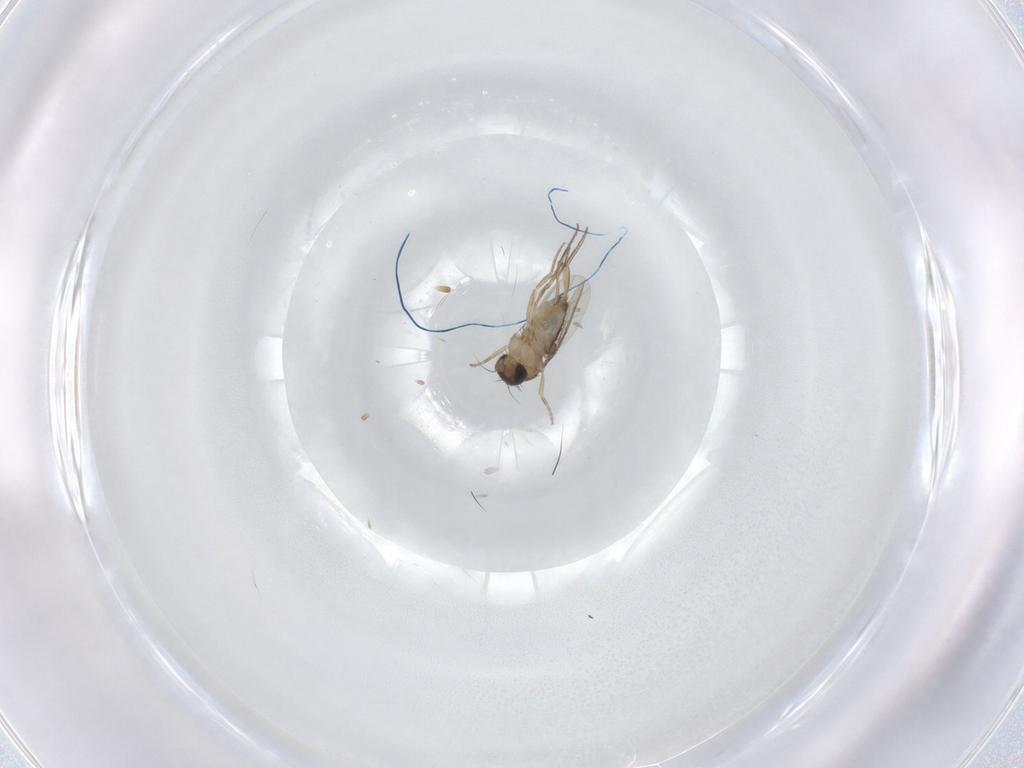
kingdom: Animalia
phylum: Arthropoda
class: Insecta
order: Diptera
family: Phoridae
